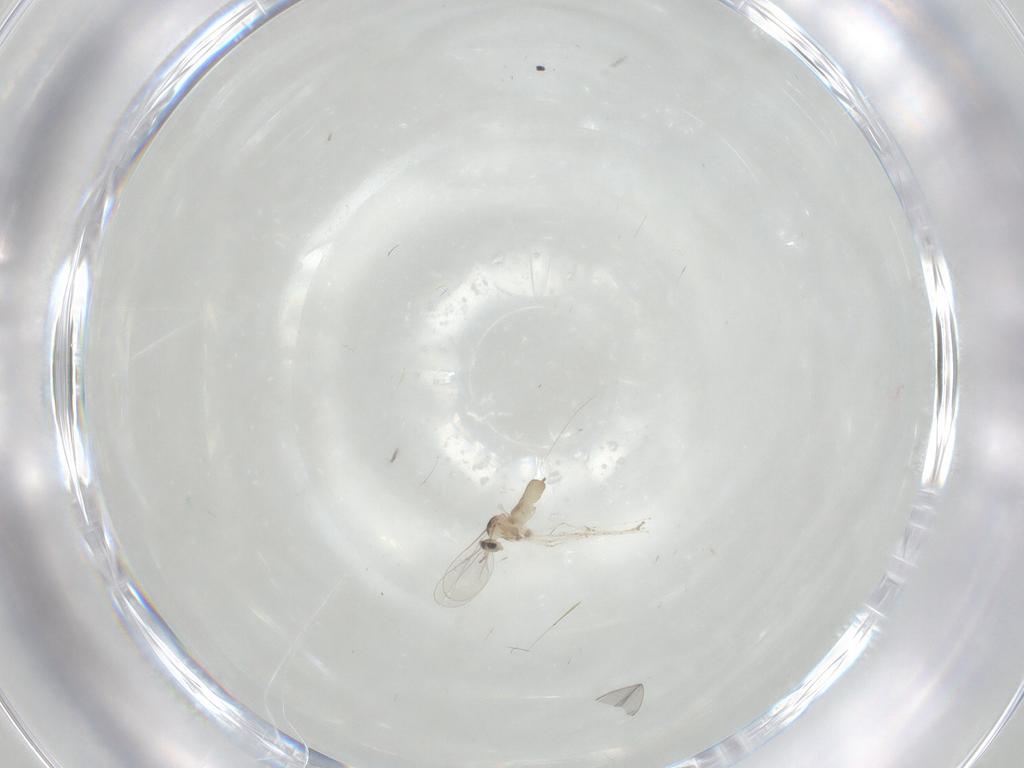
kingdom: Animalia
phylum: Arthropoda
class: Insecta
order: Diptera
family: Cecidomyiidae
